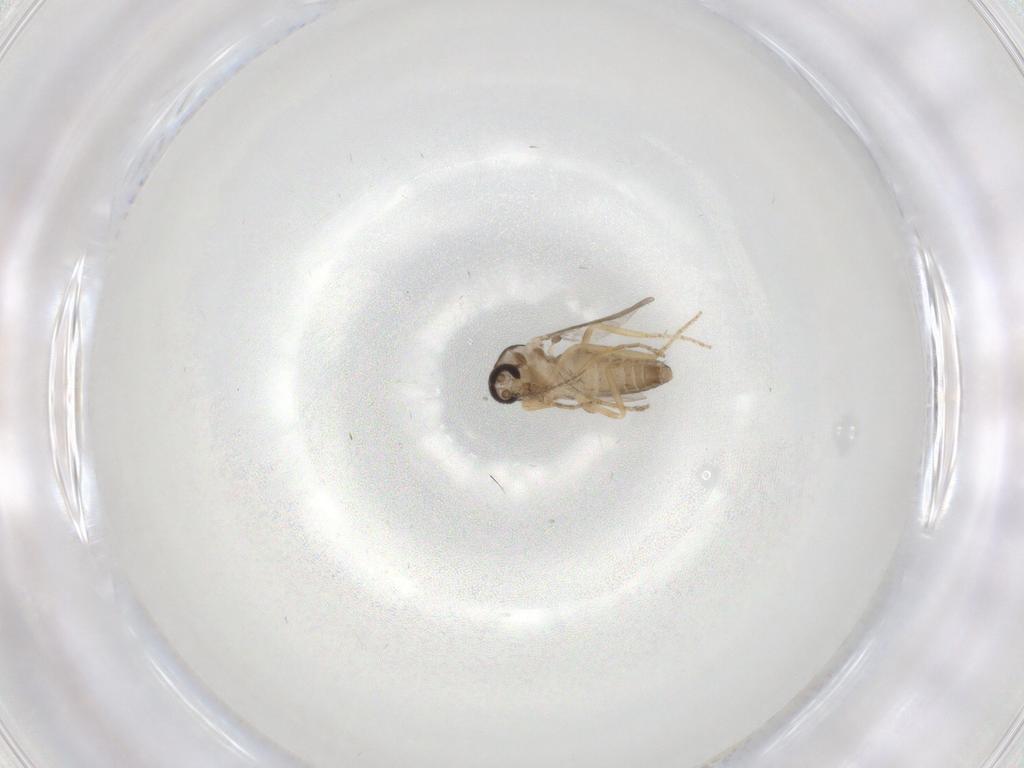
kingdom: Animalia
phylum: Arthropoda
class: Insecta
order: Diptera
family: Ceratopogonidae
